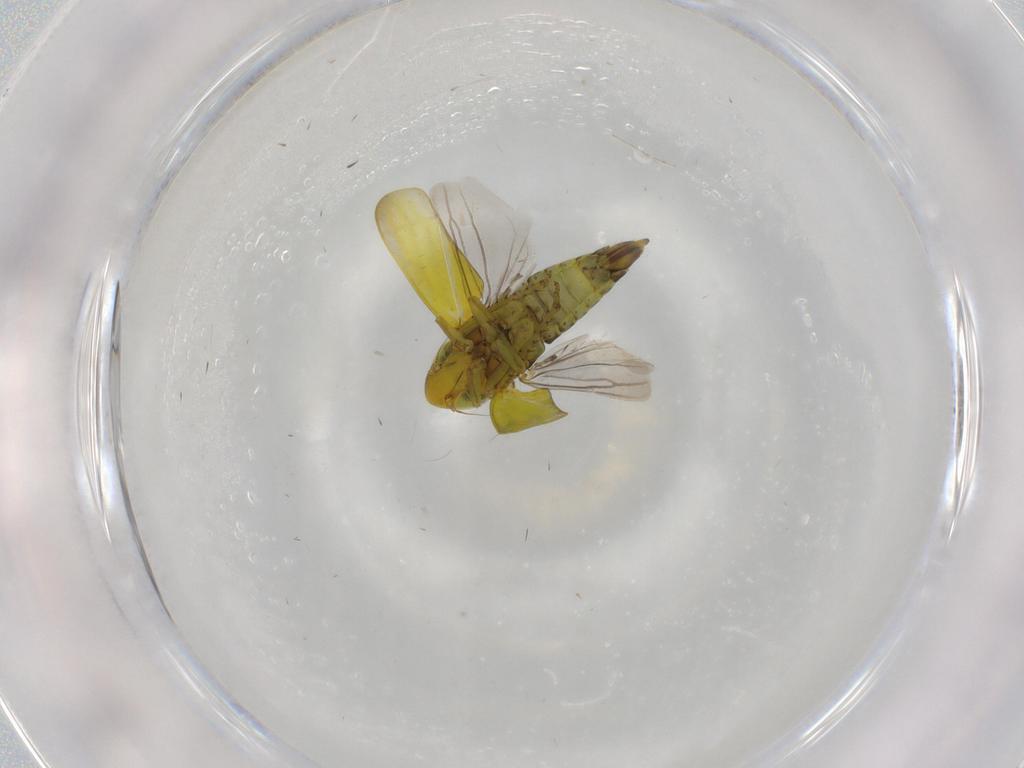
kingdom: Animalia
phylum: Arthropoda
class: Insecta
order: Hemiptera
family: Cicadellidae
